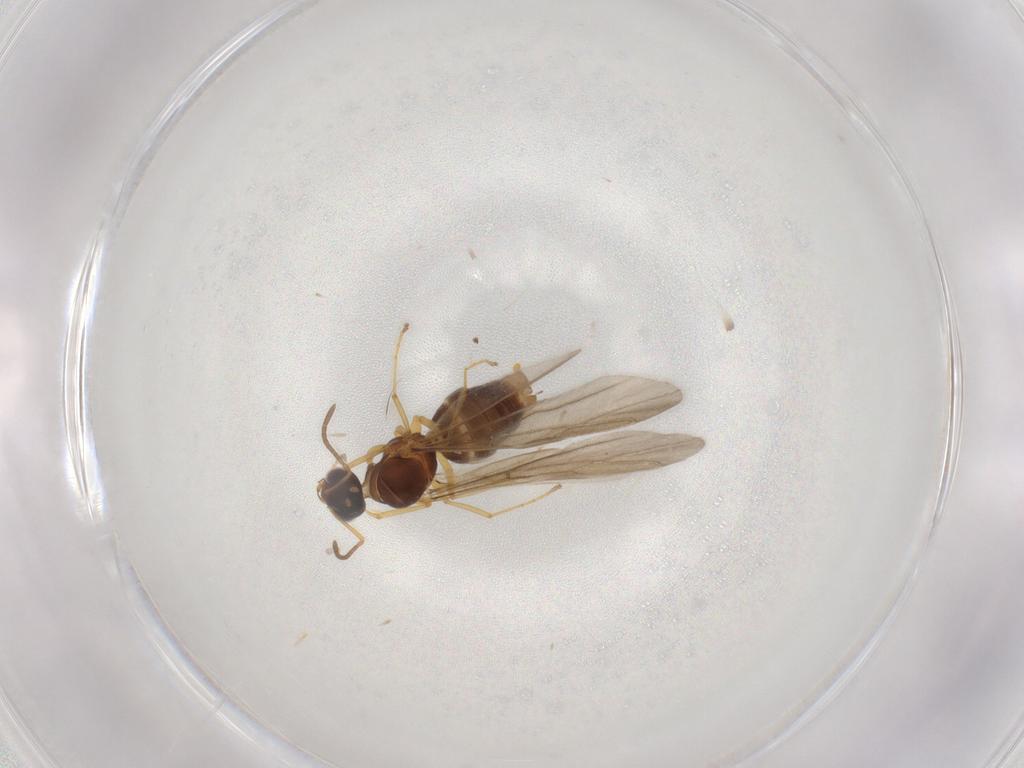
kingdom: Animalia
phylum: Arthropoda
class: Insecta
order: Hymenoptera
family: Formicidae
